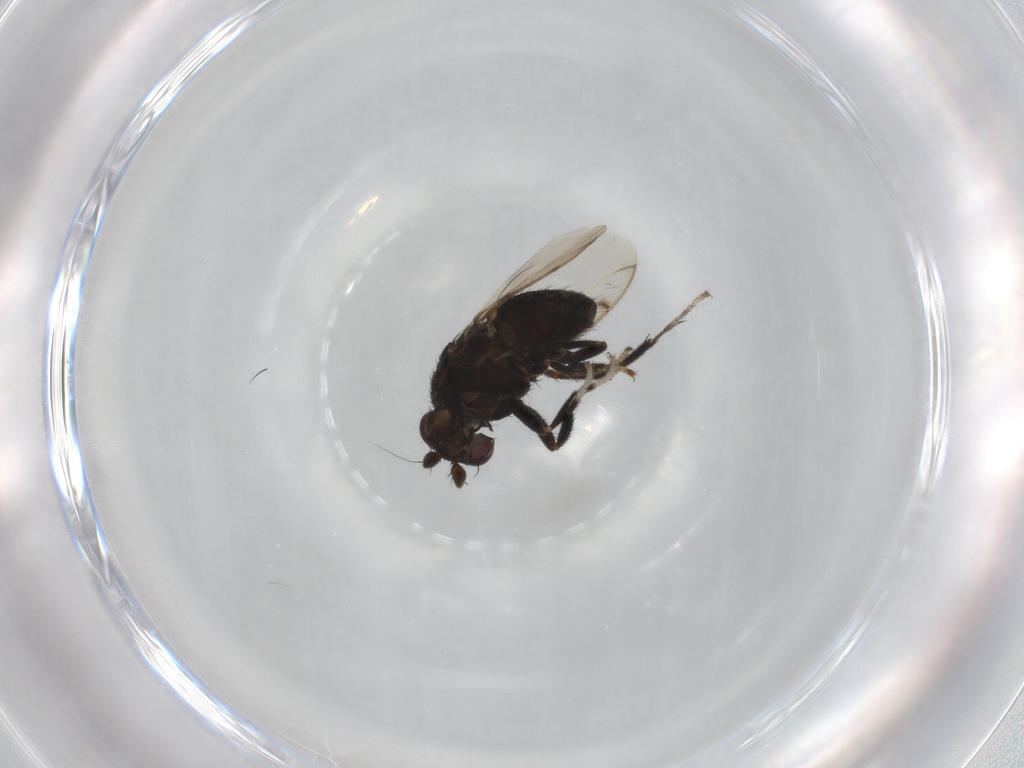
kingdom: Animalia
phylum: Arthropoda
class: Insecta
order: Diptera
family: Sphaeroceridae
